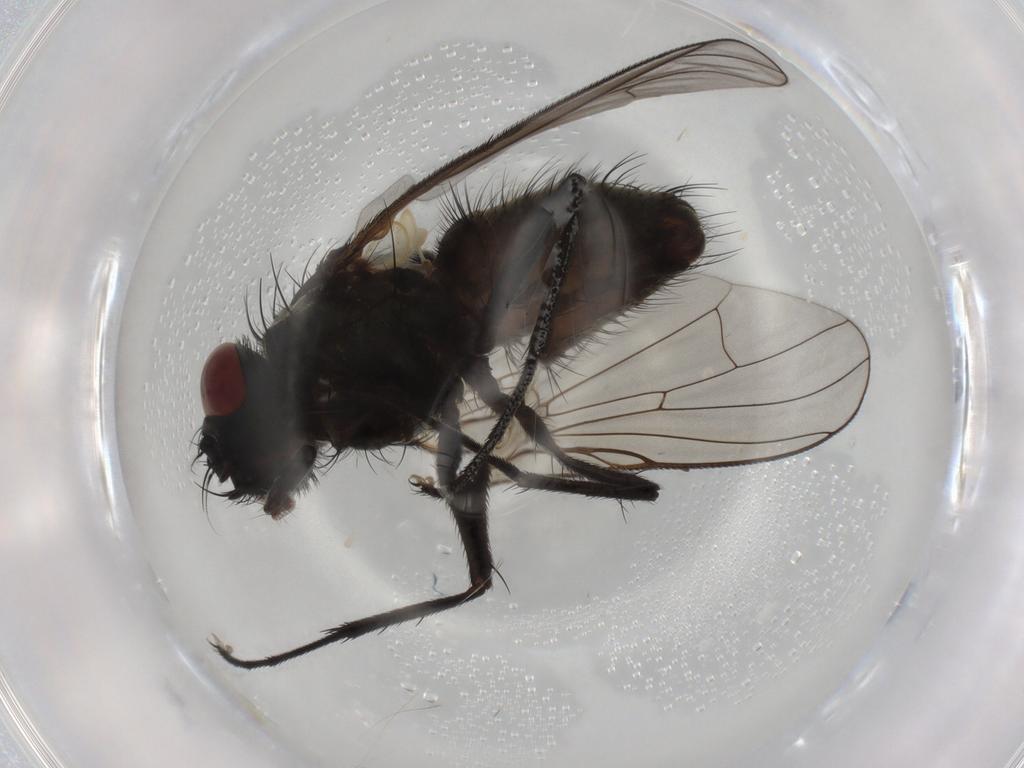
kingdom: Animalia
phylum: Arthropoda
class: Insecta
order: Diptera
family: Muscidae
